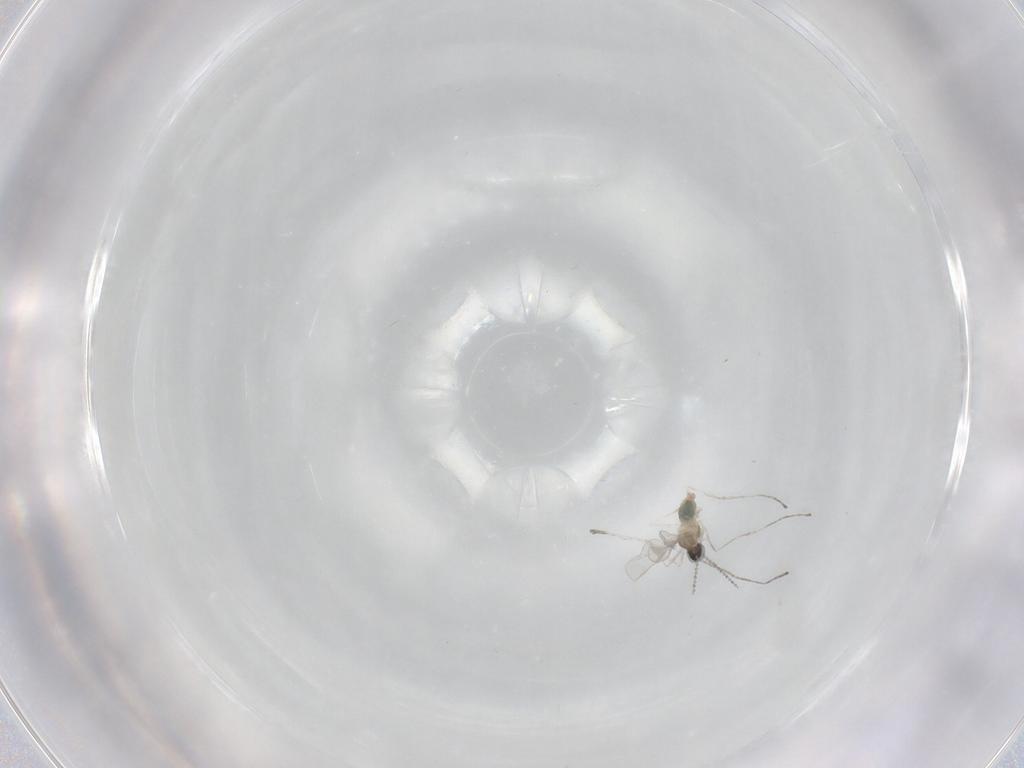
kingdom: Animalia
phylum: Arthropoda
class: Insecta
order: Diptera
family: Cecidomyiidae
